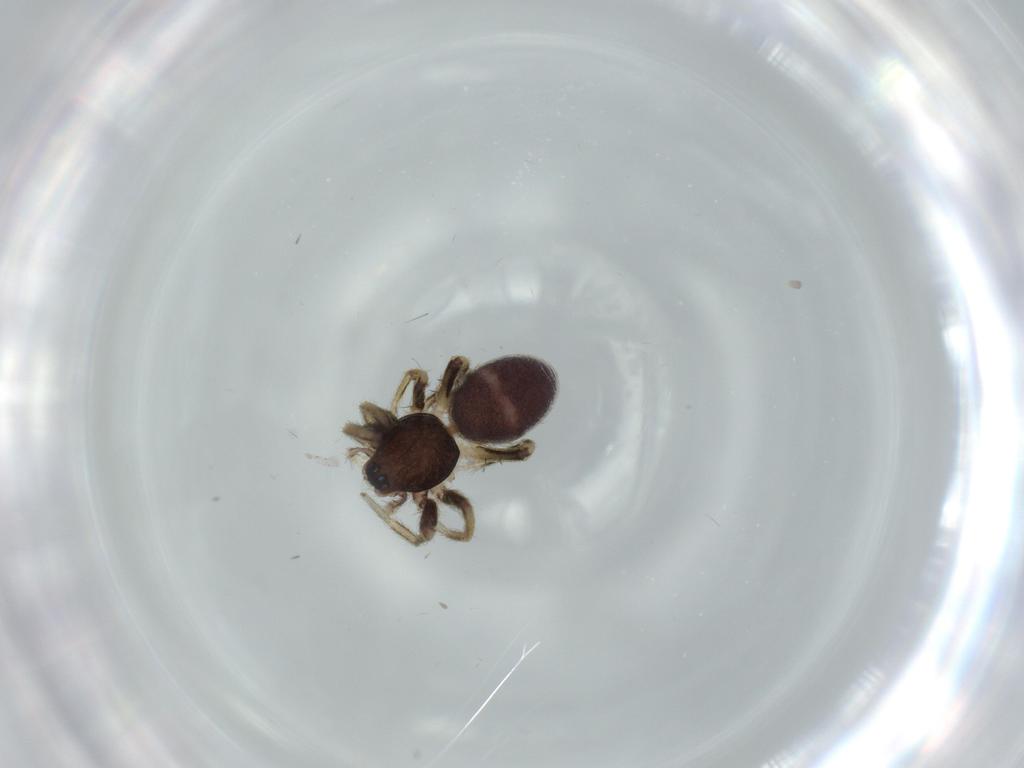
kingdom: Animalia
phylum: Arthropoda
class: Arachnida
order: Araneae
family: Corinnidae
